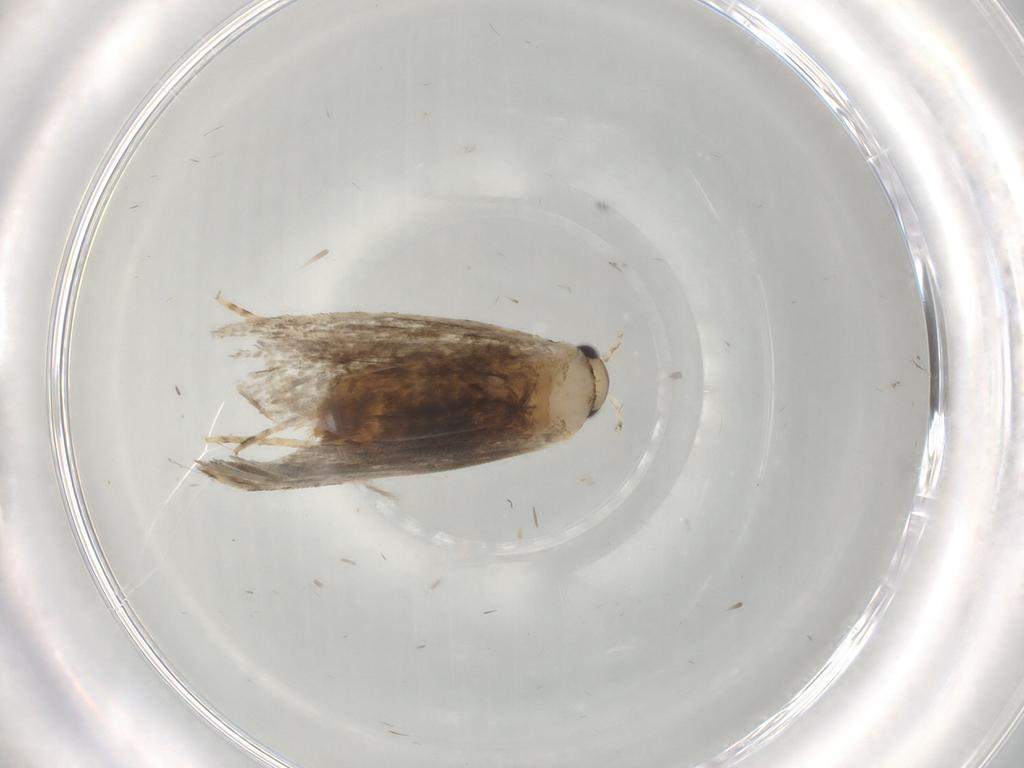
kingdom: Animalia
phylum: Arthropoda
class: Insecta
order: Lepidoptera
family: Tineidae
